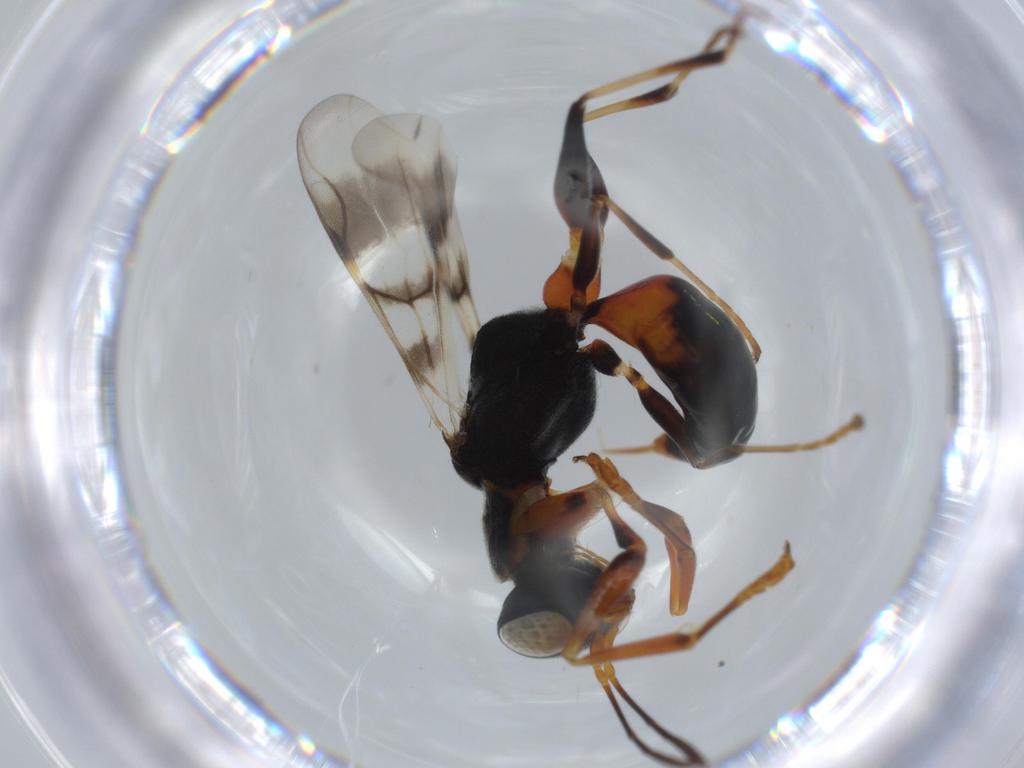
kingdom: Animalia
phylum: Arthropoda
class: Insecta
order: Hymenoptera
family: Dryinidae
